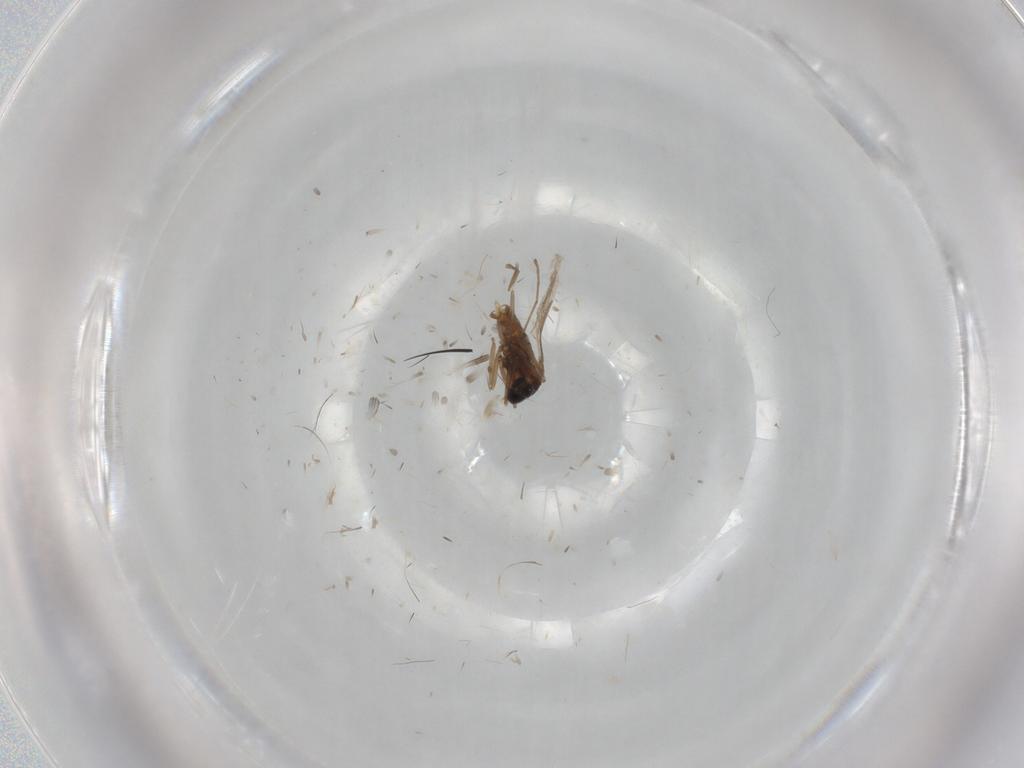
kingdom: Animalia
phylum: Arthropoda
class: Insecta
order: Diptera
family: Cecidomyiidae
